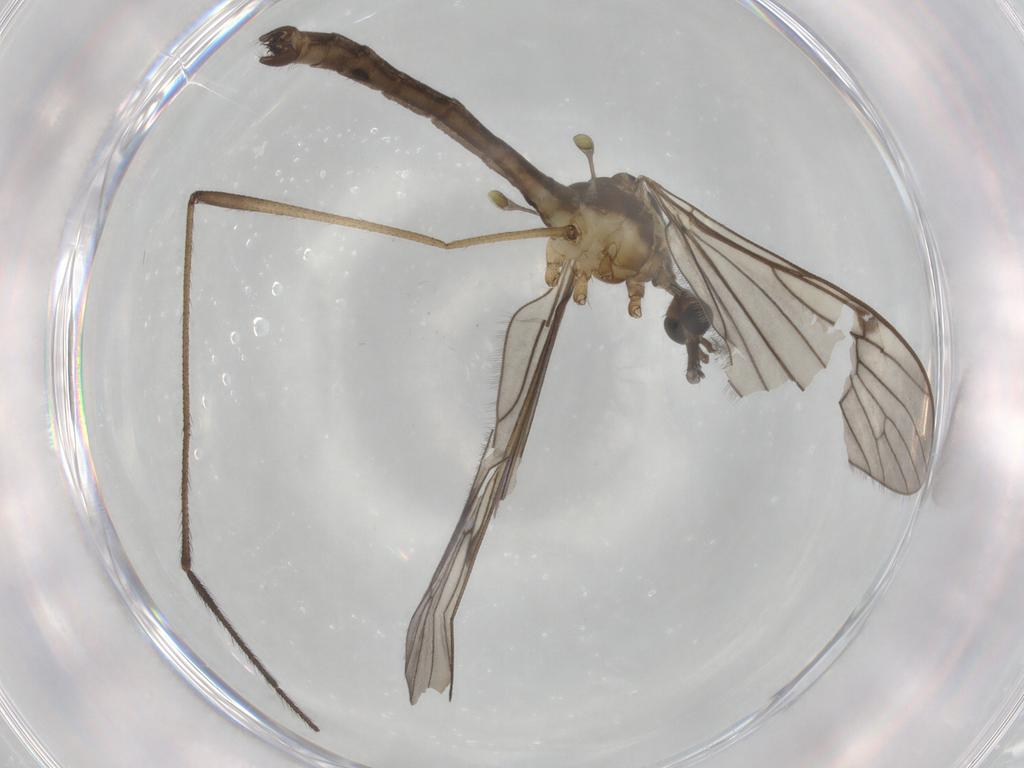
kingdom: Animalia
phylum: Arthropoda
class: Insecta
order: Diptera
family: Psychodidae
